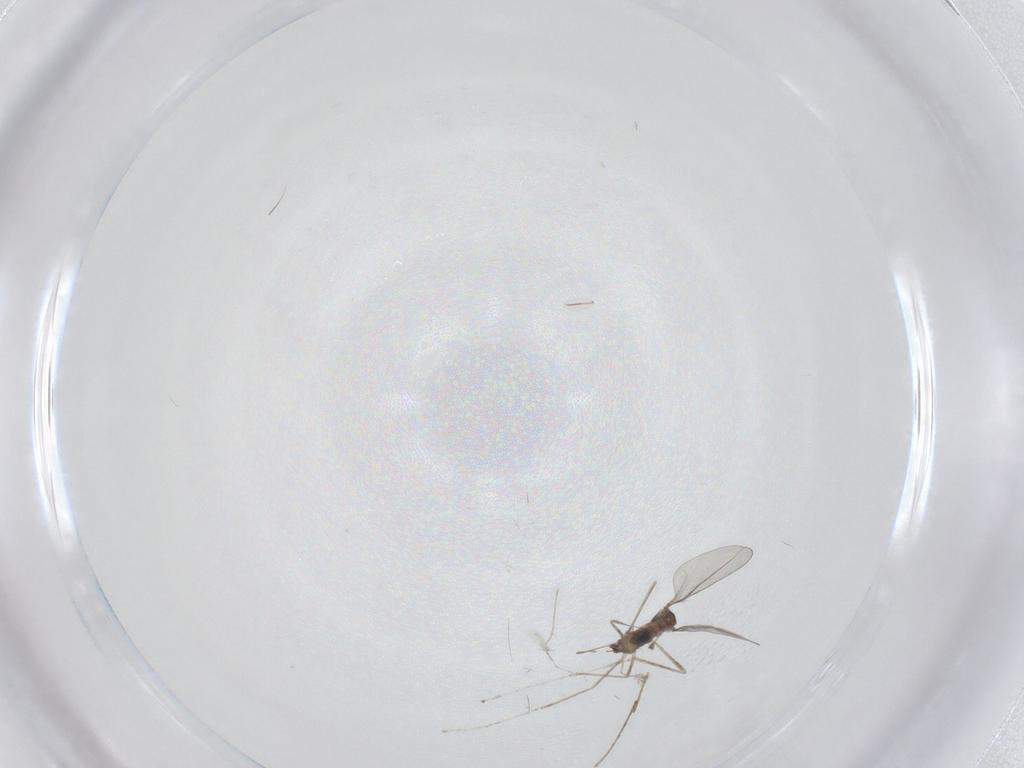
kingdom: Animalia
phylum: Arthropoda
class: Insecta
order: Diptera
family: Cecidomyiidae
